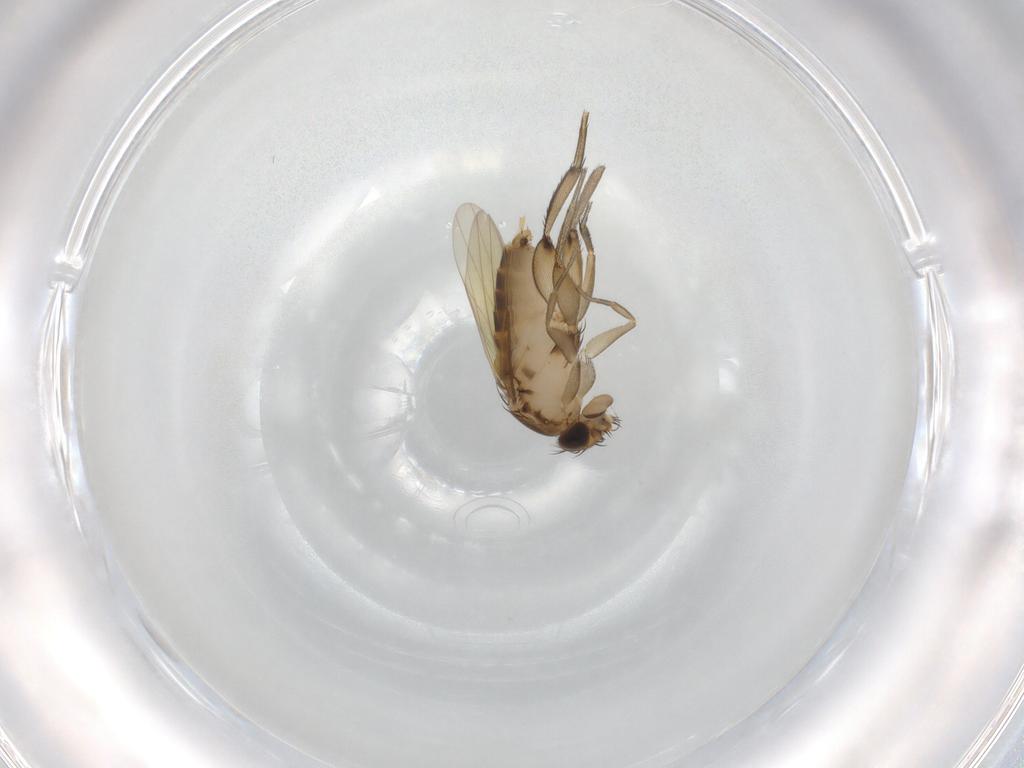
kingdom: Animalia
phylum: Arthropoda
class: Insecta
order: Diptera
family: Phoridae
